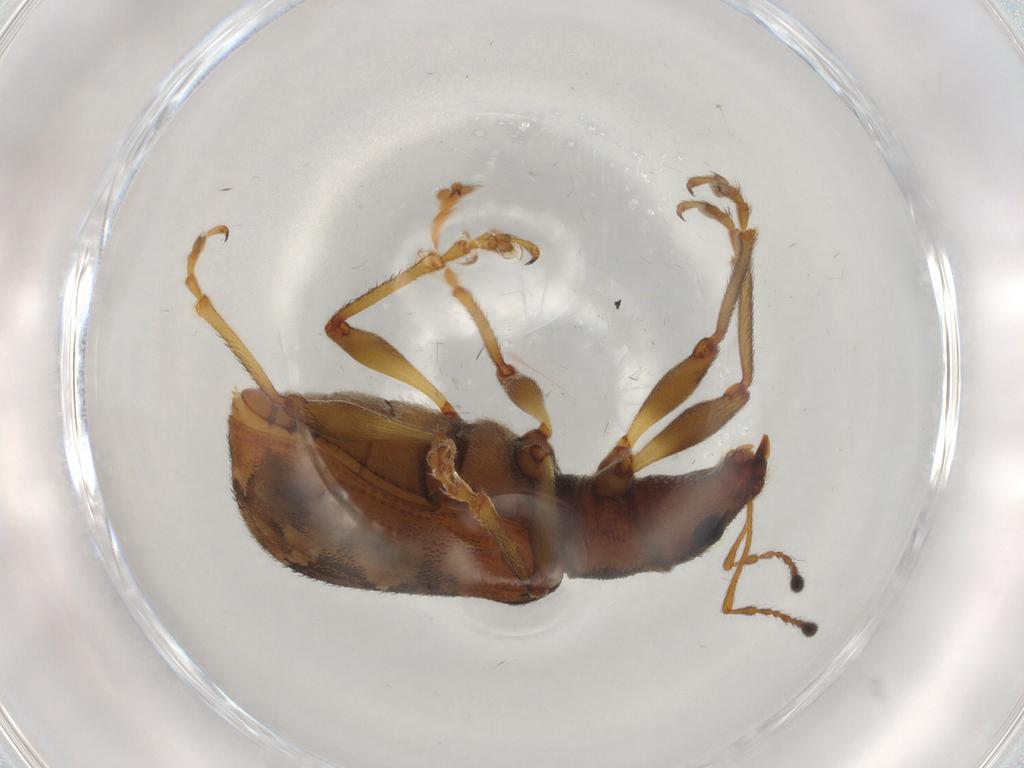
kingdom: Animalia
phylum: Arthropoda
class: Insecta
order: Coleoptera
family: Curculionidae
